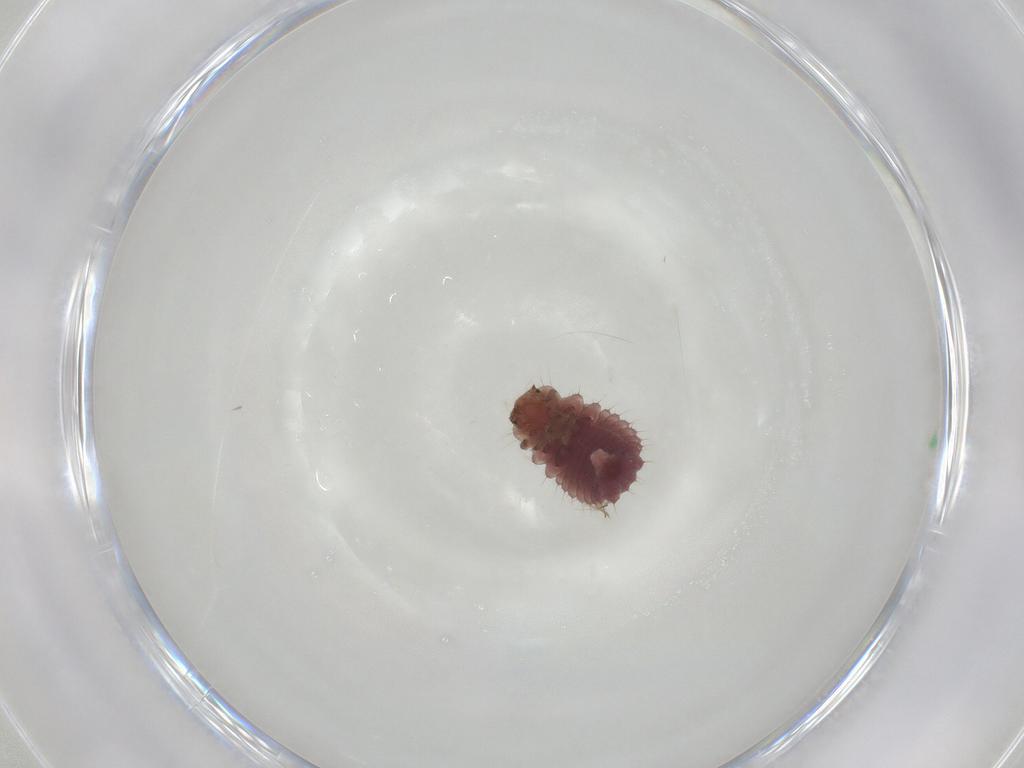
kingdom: Animalia
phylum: Arthropoda
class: Insecta
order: Coleoptera
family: Coccinellidae
